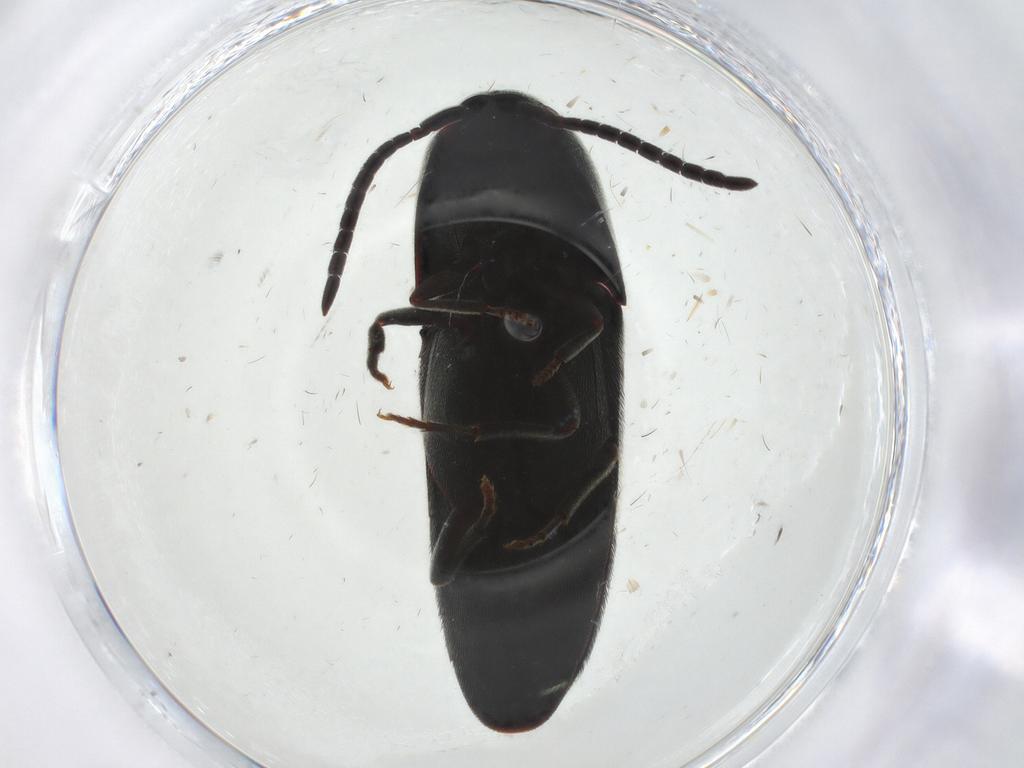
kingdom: Animalia
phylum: Arthropoda
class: Insecta
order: Coleoptera
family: Eucnemidae
